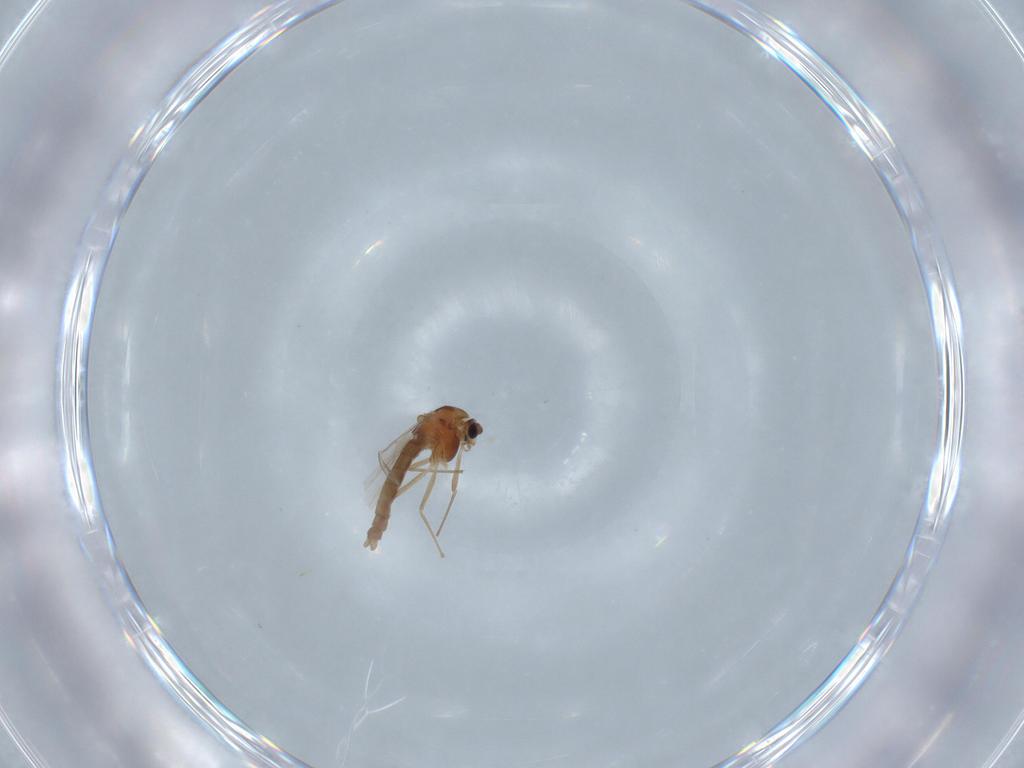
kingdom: Animalia
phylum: Arthropoda
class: Insecta
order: Diptera
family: Chironomidae
